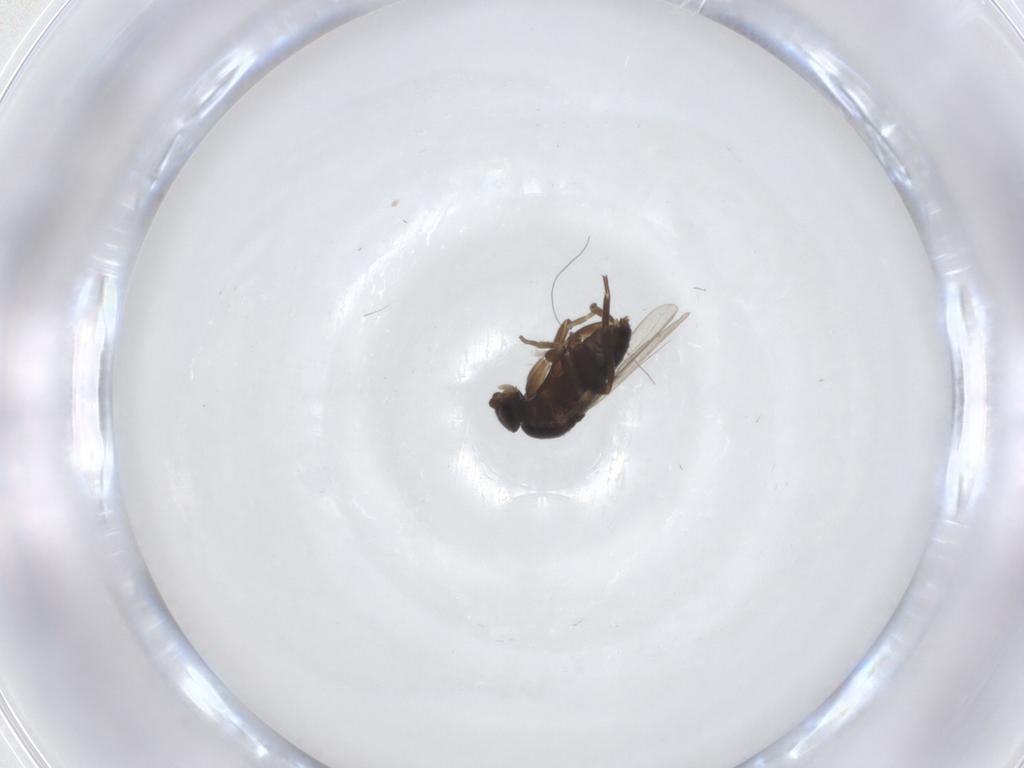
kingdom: Animalia
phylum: Arthropoda
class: Insecta
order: Diptera
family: Phoridae
